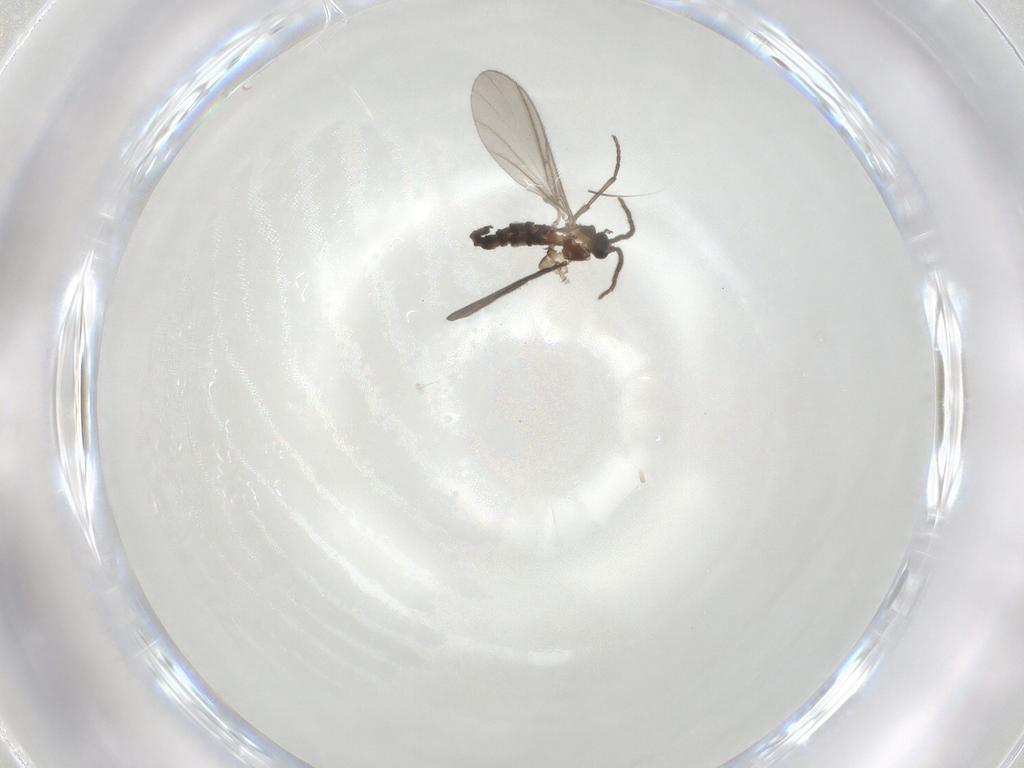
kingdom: Animalia
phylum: Arthropoda
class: Insecta
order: Diptera
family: Sciaridae
